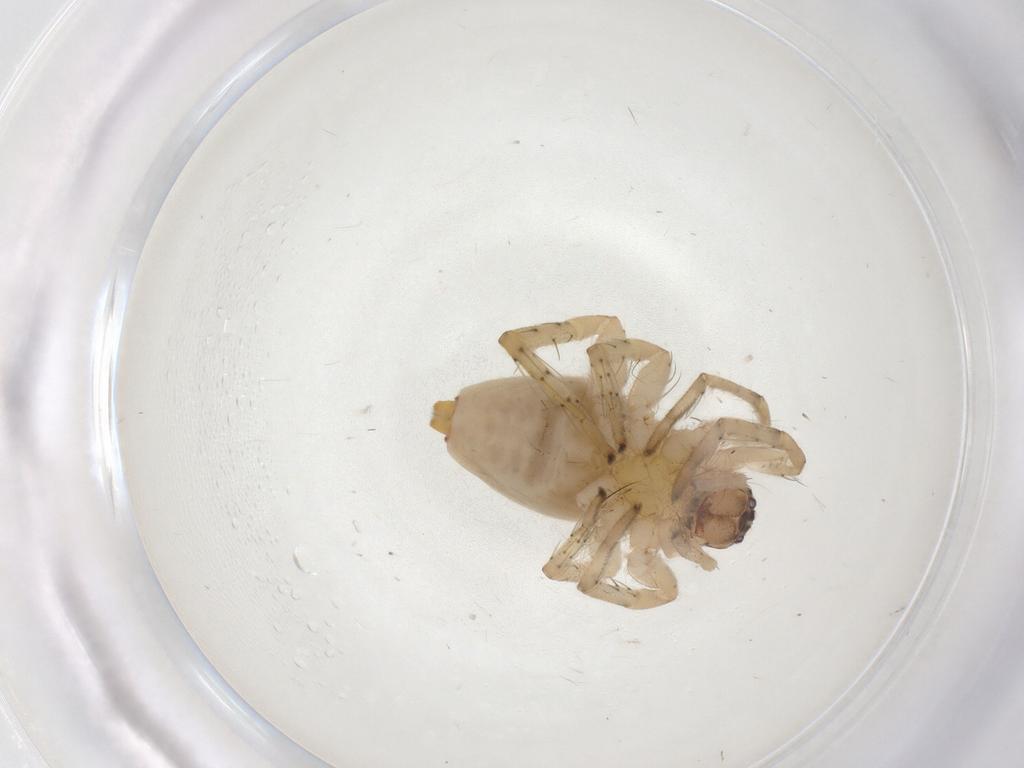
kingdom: Animalia
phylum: Arthropoda
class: Arachnida
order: Araneae
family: Clubionidae
